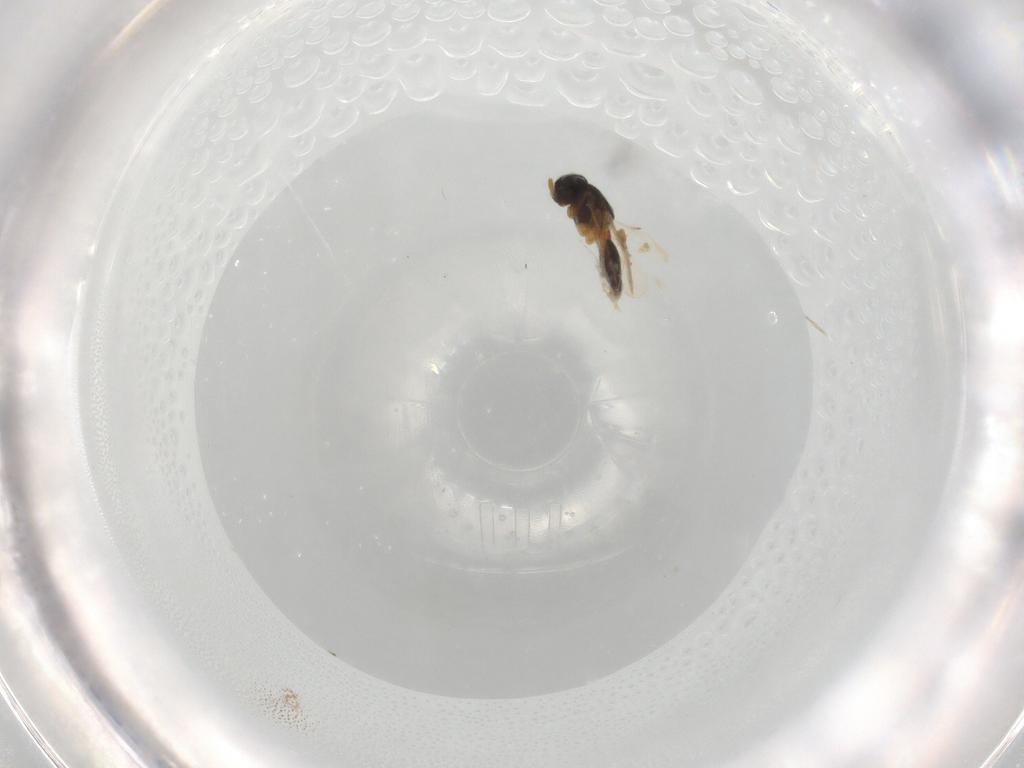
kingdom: Animalia
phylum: Arthropoda
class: Insecta
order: Hymenoptera
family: Scelionidae
